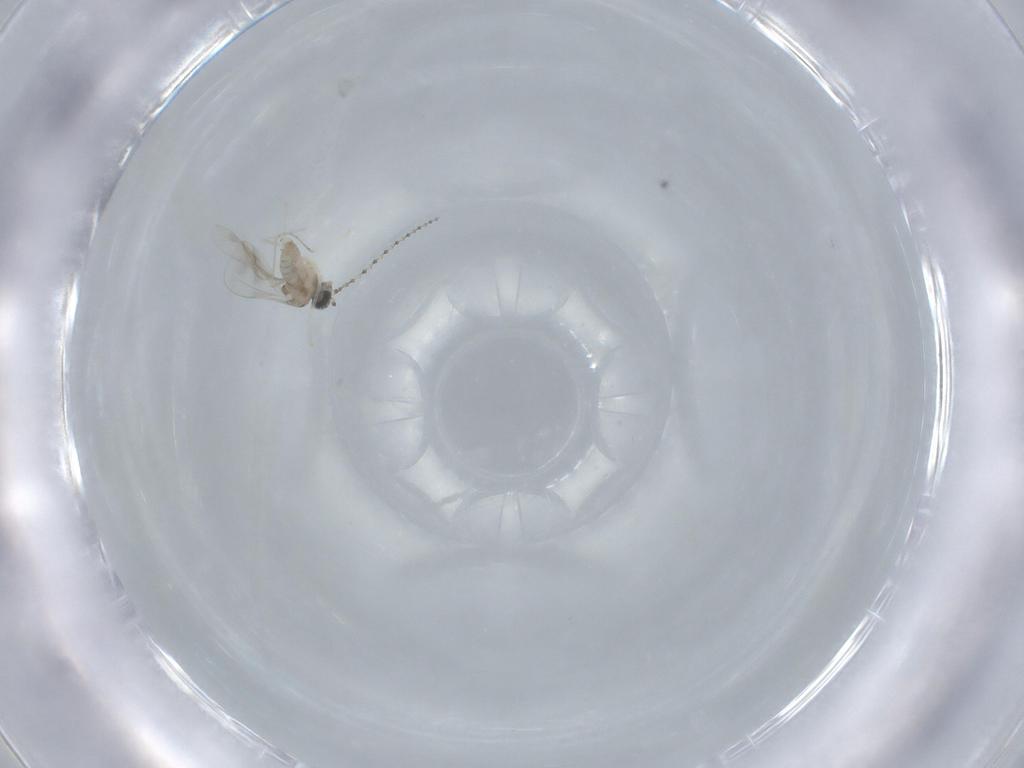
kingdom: Animalia
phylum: Arthropoda
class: Insecta
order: Diptera
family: Cecidomyiidae
